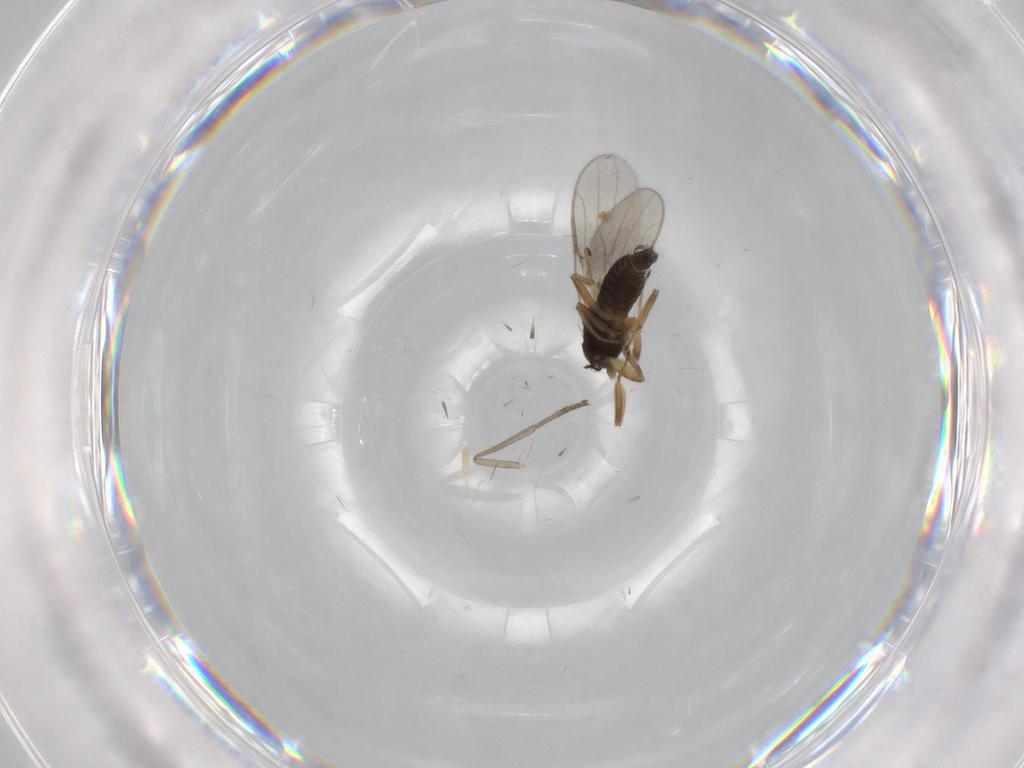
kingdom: Animalia
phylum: Arthropoda
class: Insecta
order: Diptera
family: Hybotidae
